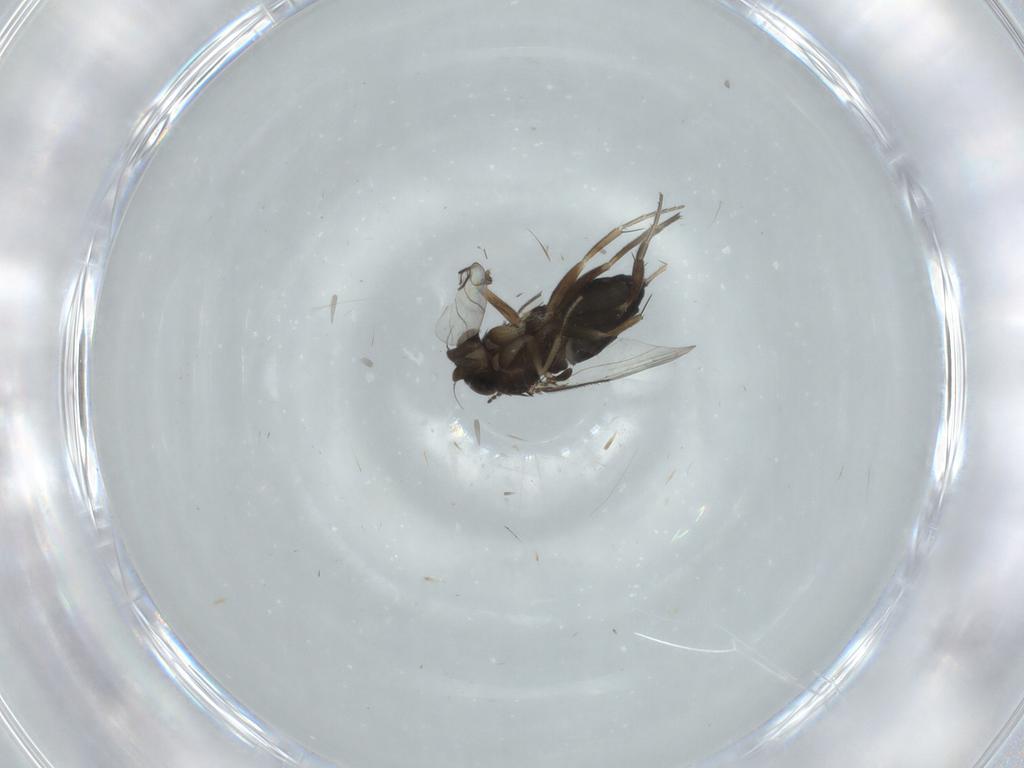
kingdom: Animalia
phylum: Arthropoda
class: Insecta
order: Diptera
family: Phoridae
